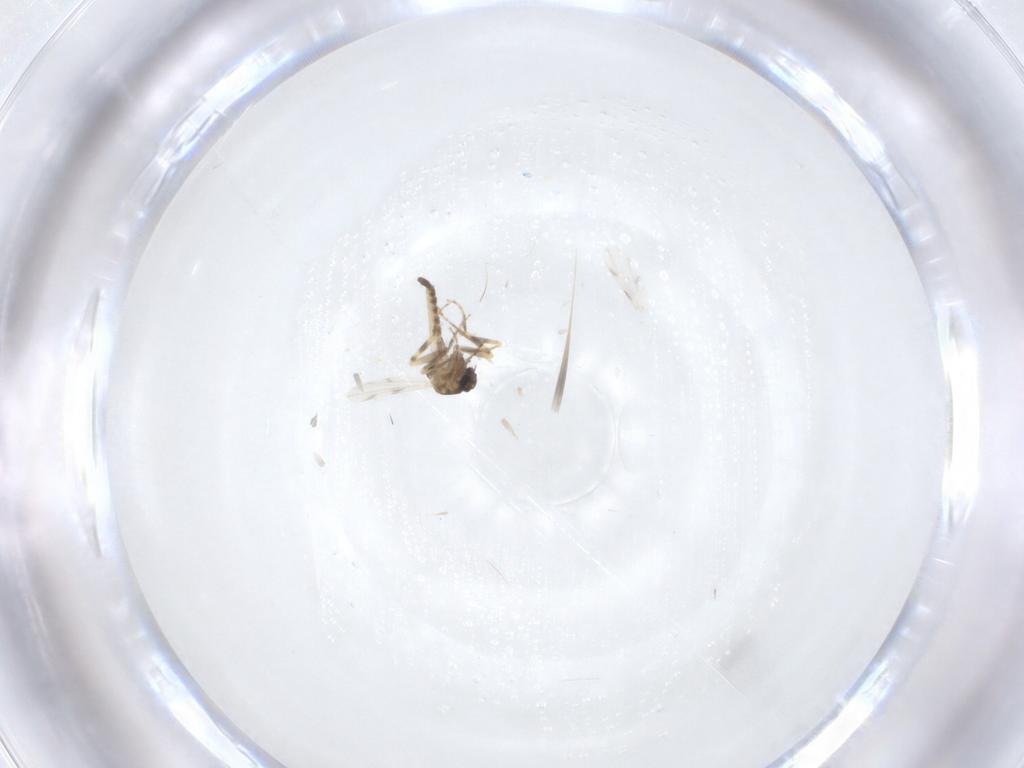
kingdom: Animalia
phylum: Arthropoda
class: Insecta
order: Diptera
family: Ceratopogonidae
